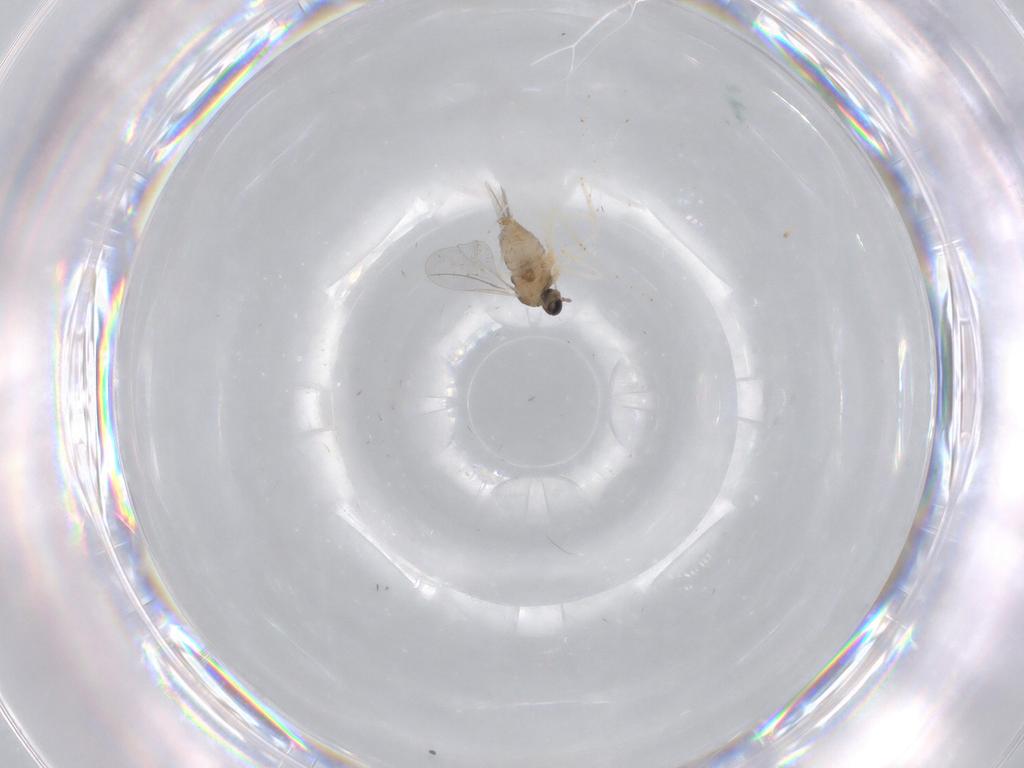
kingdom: Animalia
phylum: Arthropoda
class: Insecta
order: Diptera
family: Cecidomyiidae
